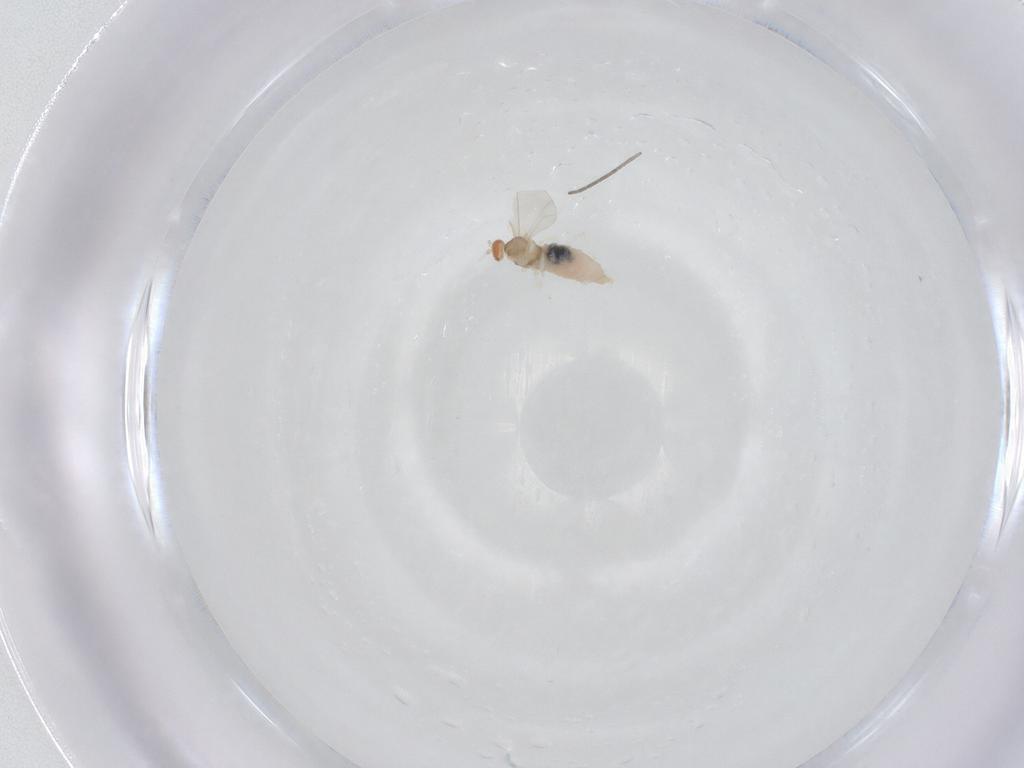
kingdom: Animalia
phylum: Arthropoda
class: Insecta
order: Diptera
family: Cecidomyiidae
